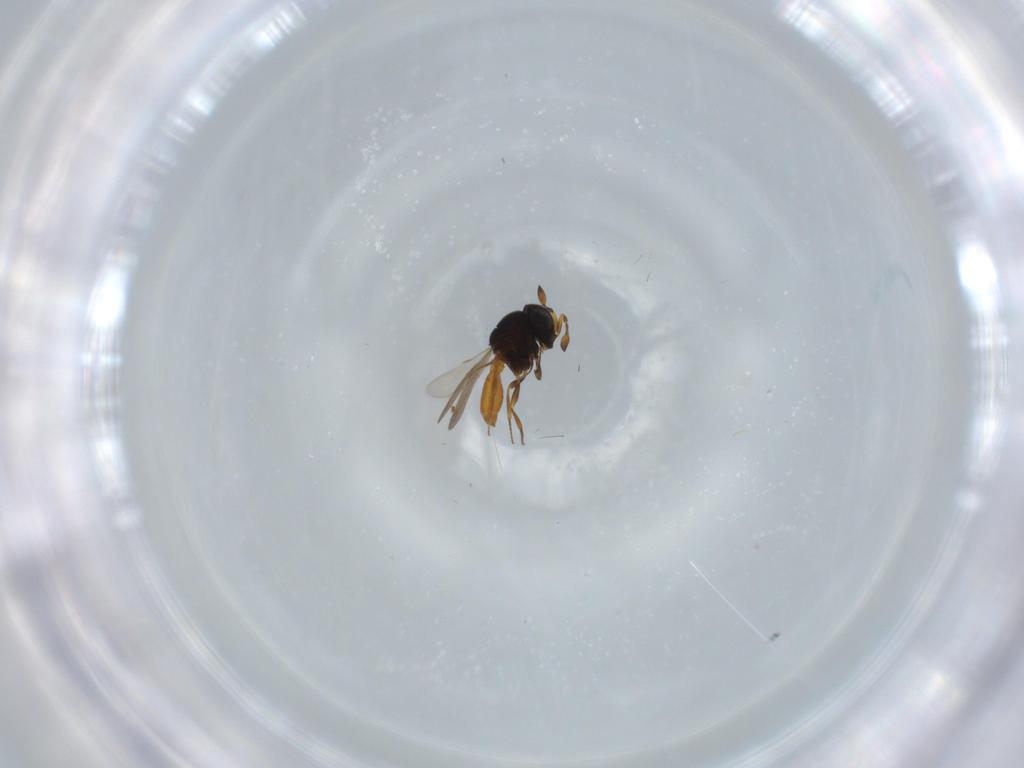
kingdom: Animalia
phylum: Arthropoda
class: Insecta
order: Hymenoptera
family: Scelionidae
